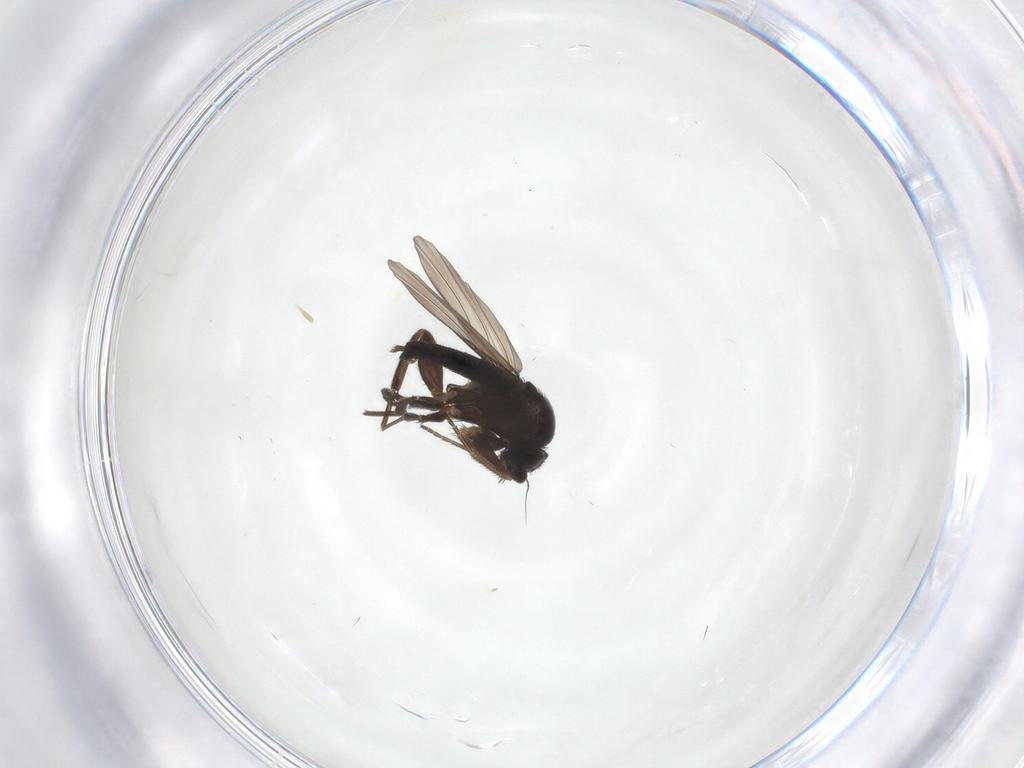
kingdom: Animalia
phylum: Arthropoda
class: Insecta
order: Diptera
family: Phoridae
